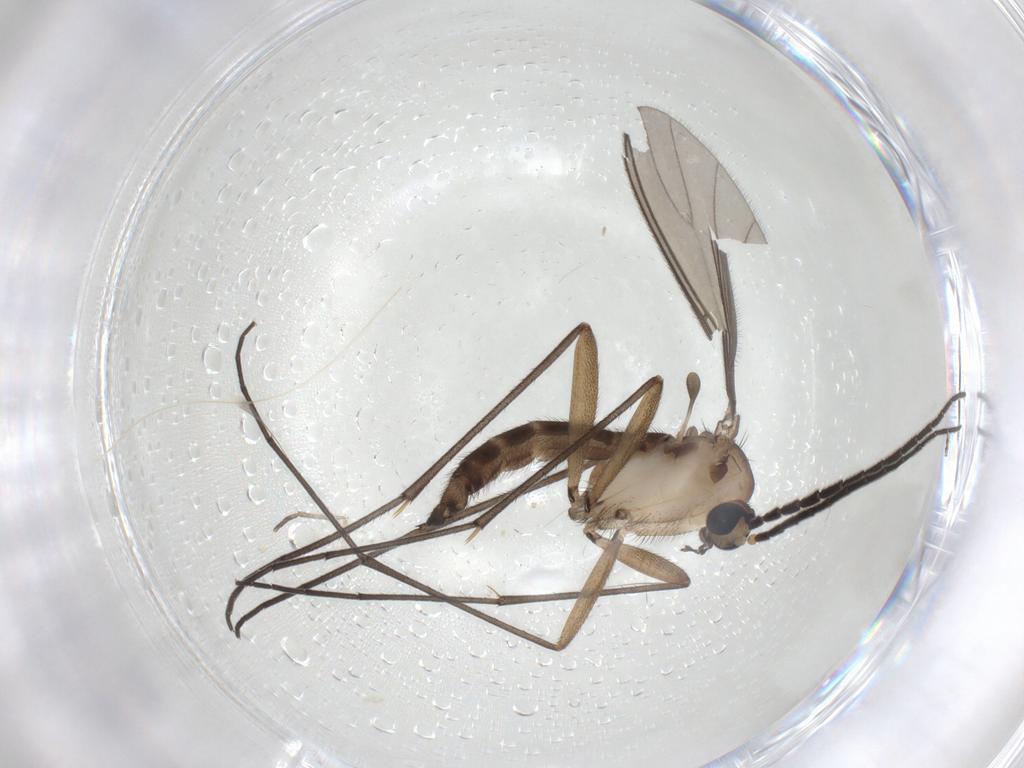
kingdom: Animalia
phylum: Arthropoda
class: Insecta
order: Diptera
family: Sciaridae
